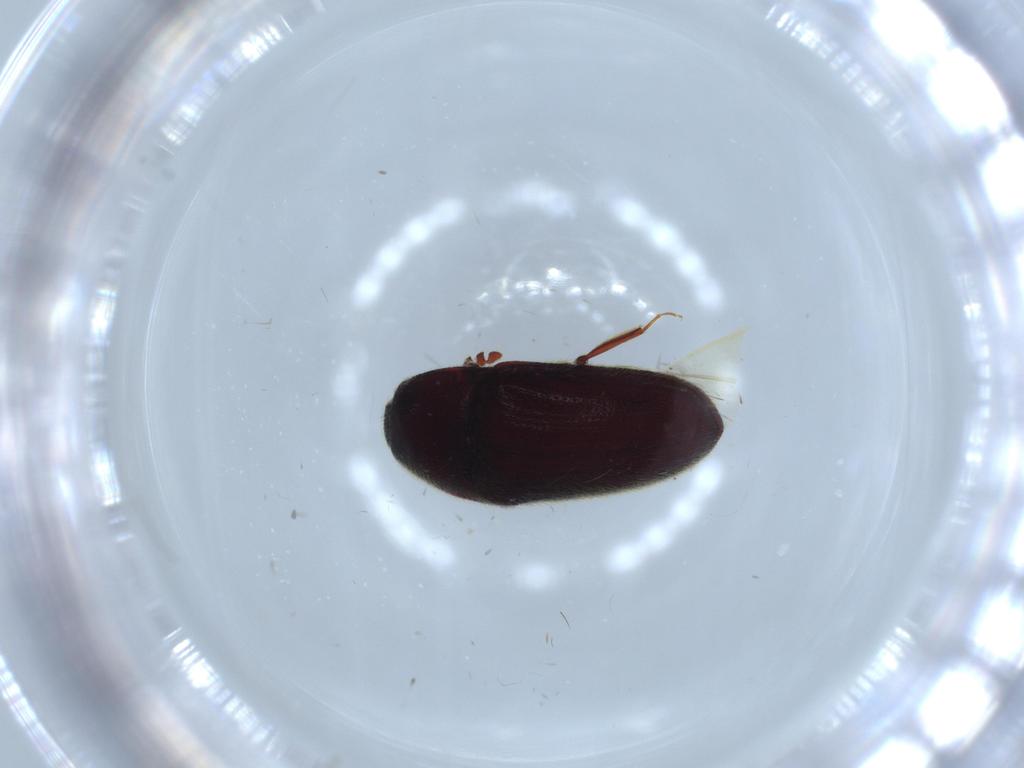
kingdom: Animalia
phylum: Arthropoda
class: Insecta
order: Coleoptera
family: Throscidae
